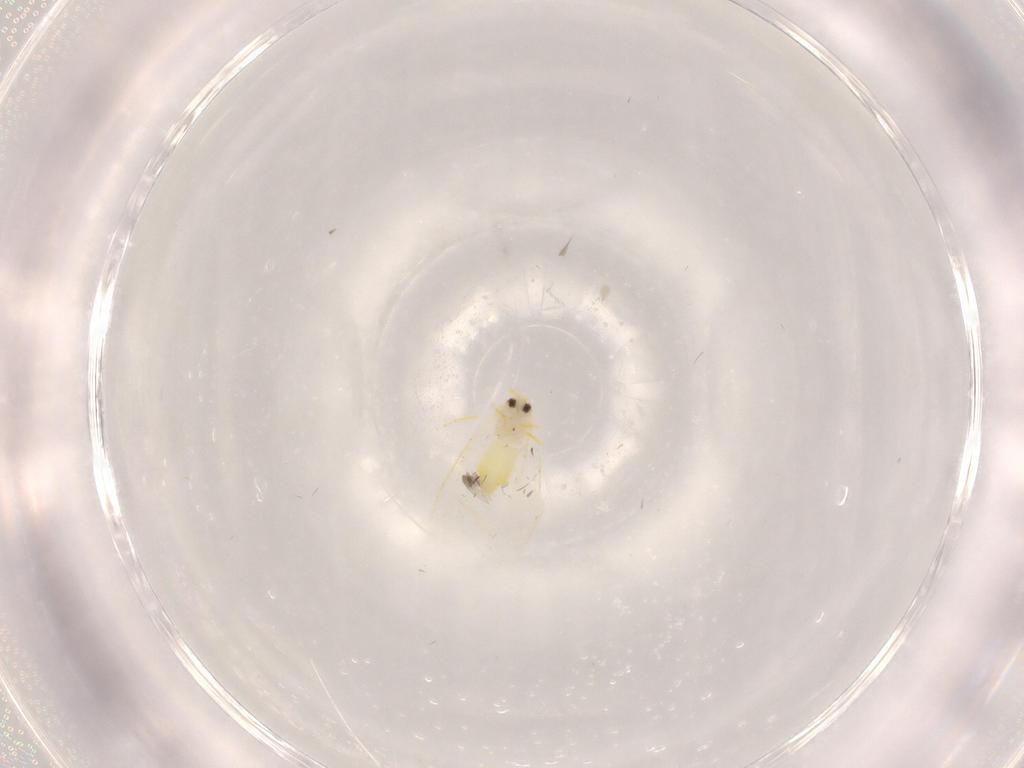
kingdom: Animalia
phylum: Arthropoda
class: Insecta
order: Hemiptera
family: Aleyrodidae
